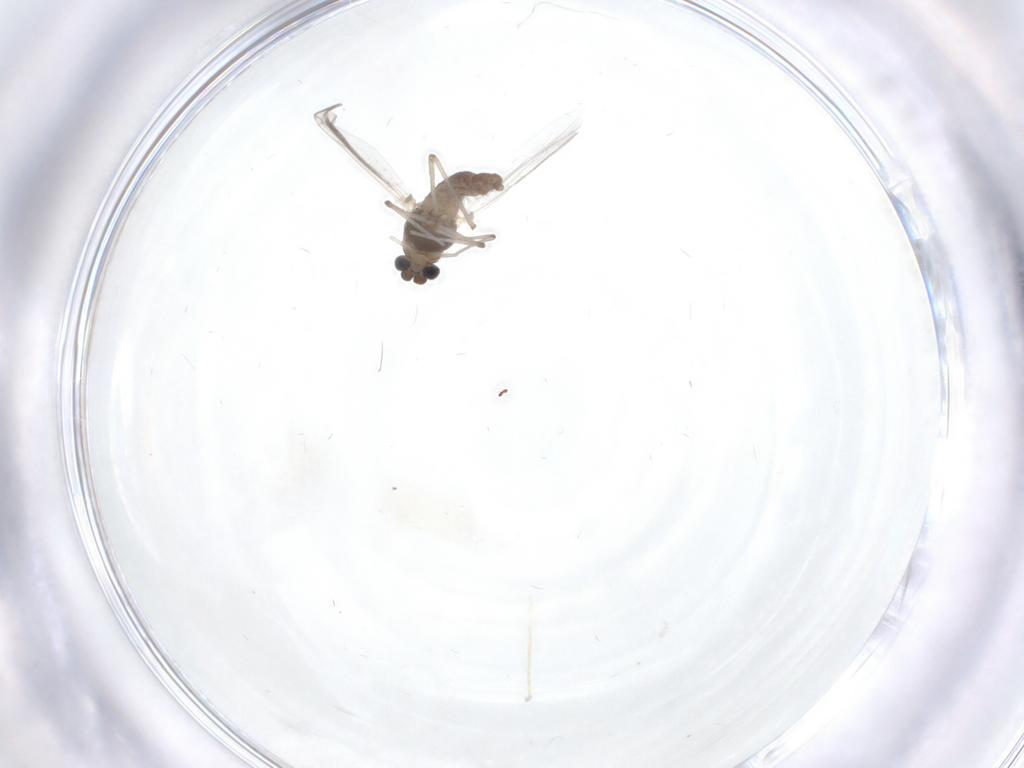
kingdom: Animalia
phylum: Arthropoda
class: Insecta
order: Diptera
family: Chironomidae
